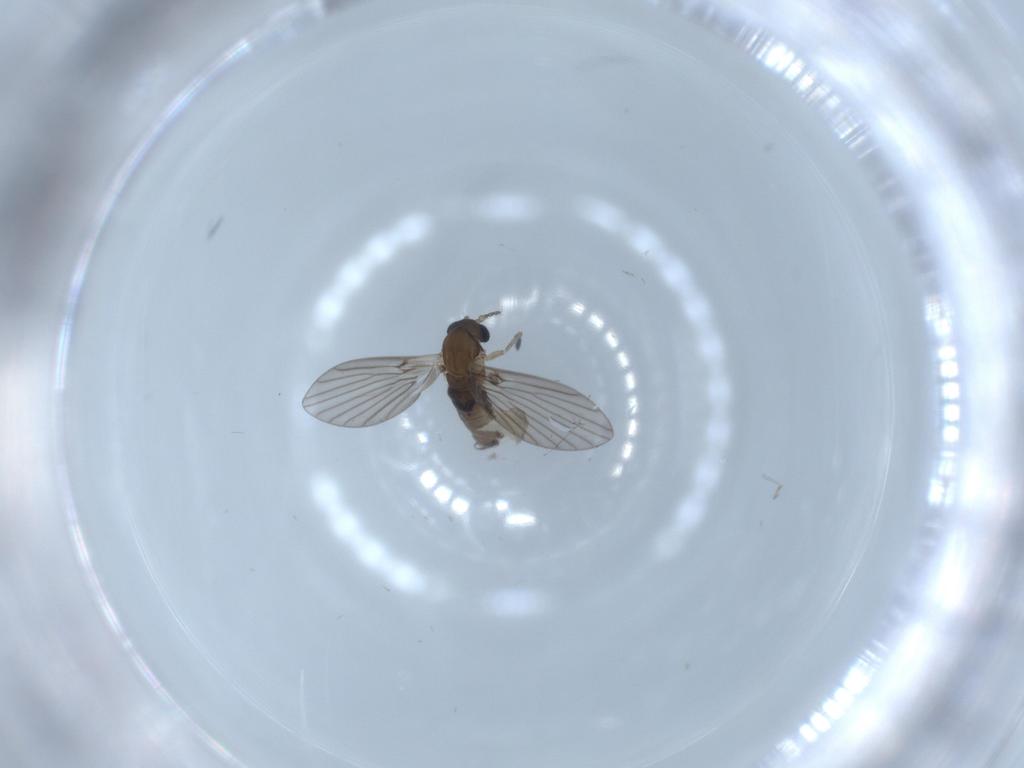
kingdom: Animalia
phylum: Arthropoda
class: Insecta
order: Diptera
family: Psychodidae
